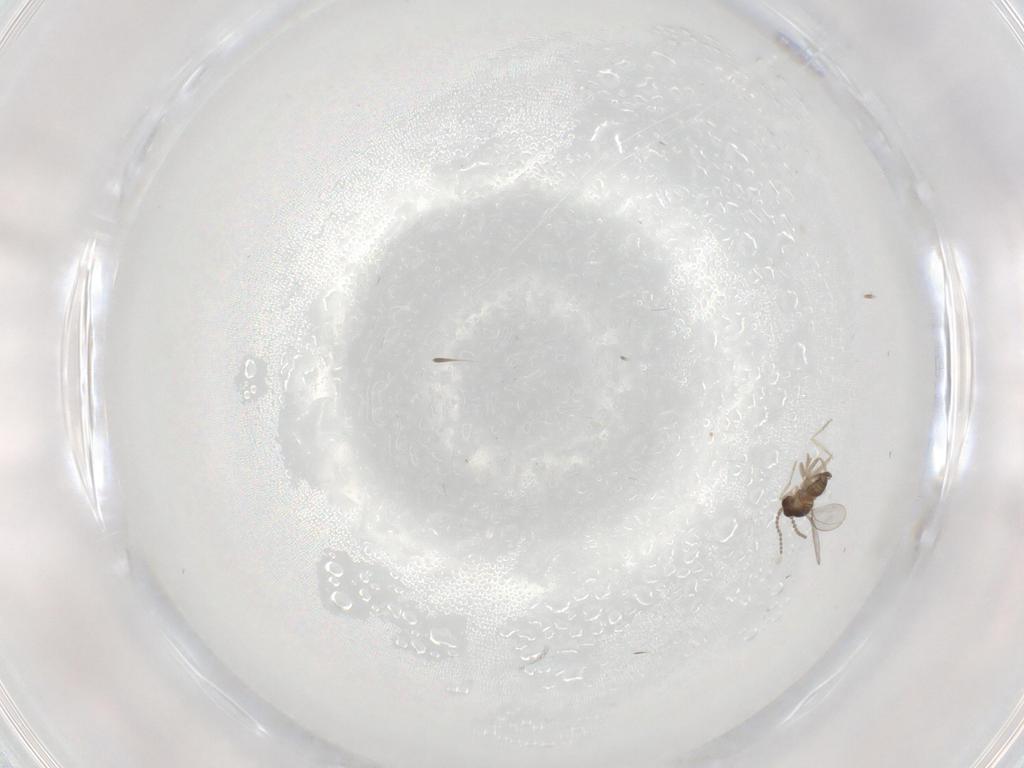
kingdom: Animalia
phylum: Arthropoda
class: Insecta
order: Diptera
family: Cecidomyiidae
